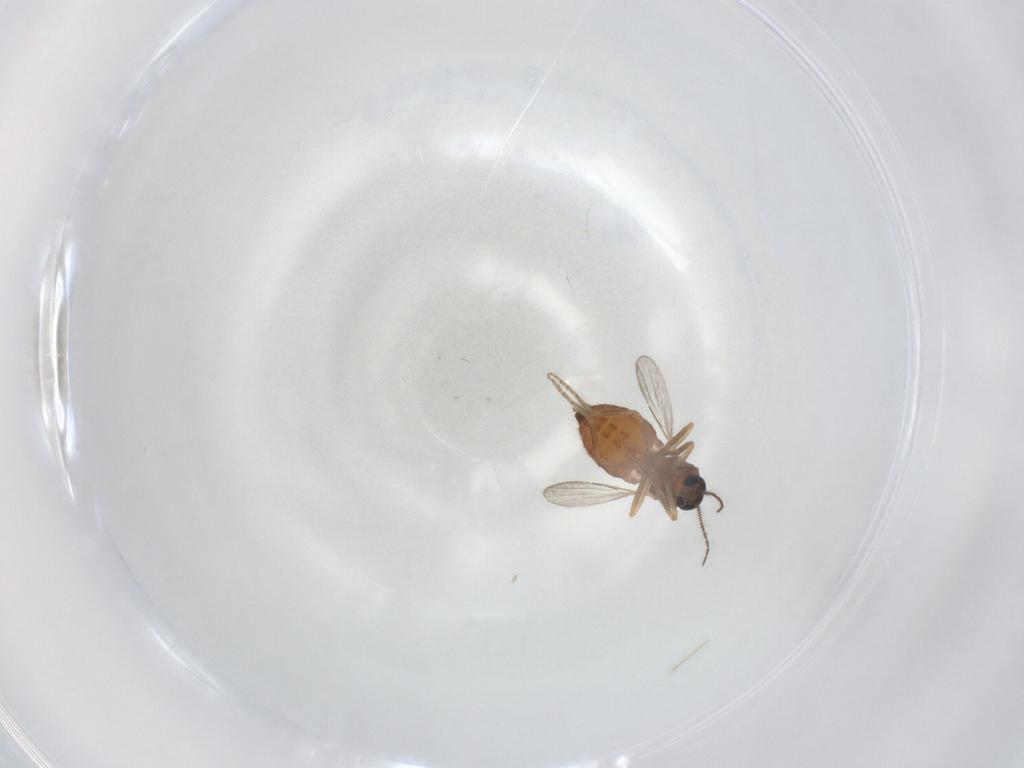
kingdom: Animalia
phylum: Arthropoda
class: Insecta
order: Diptera
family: Ceratopogonidae
